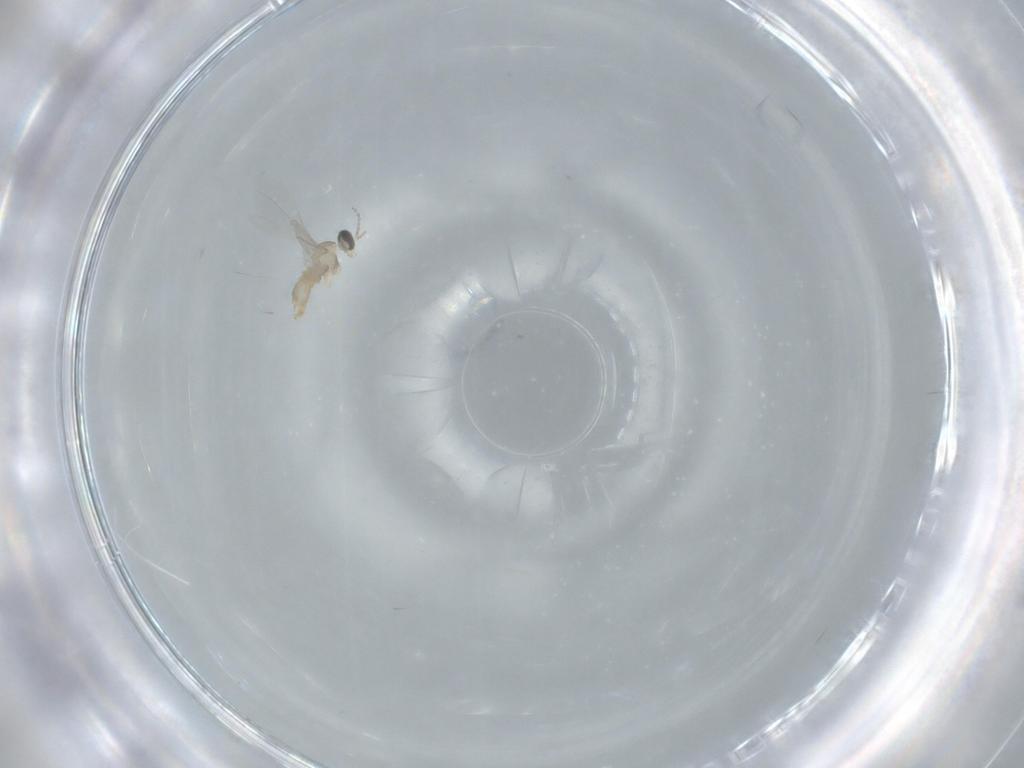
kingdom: Animalia
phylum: Arthropoda
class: Insecta
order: Diptera
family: Cecidomyiidae
